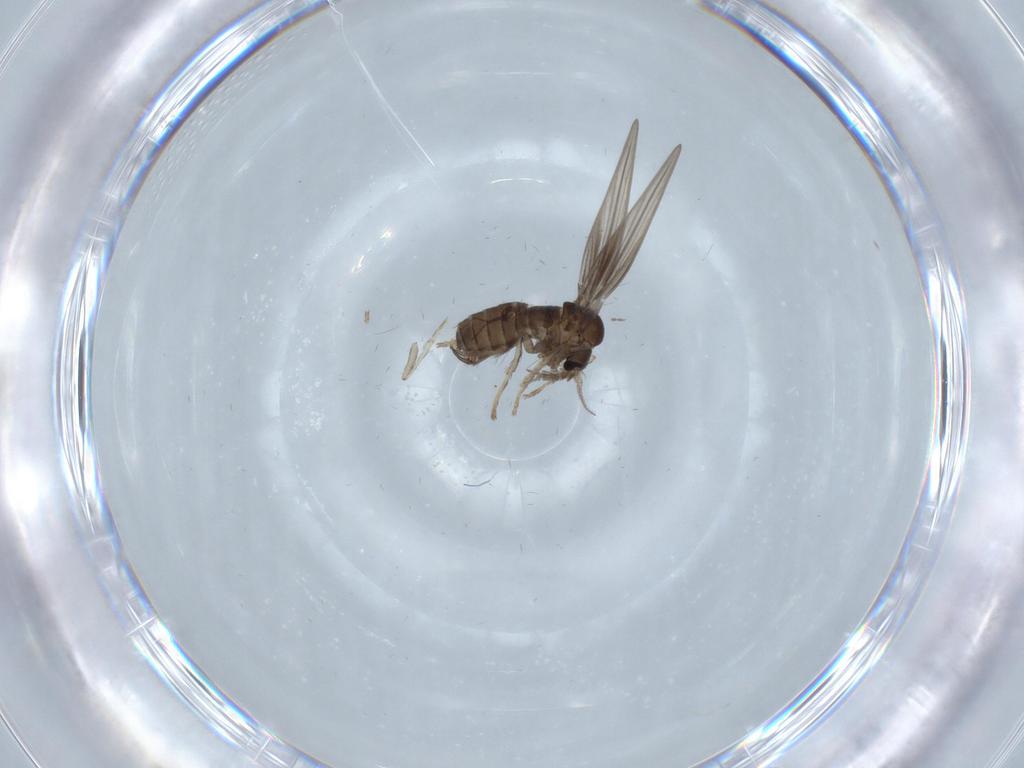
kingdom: Animalia
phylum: Arthropoda
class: Insecta
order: Diptera
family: Psychodidae
